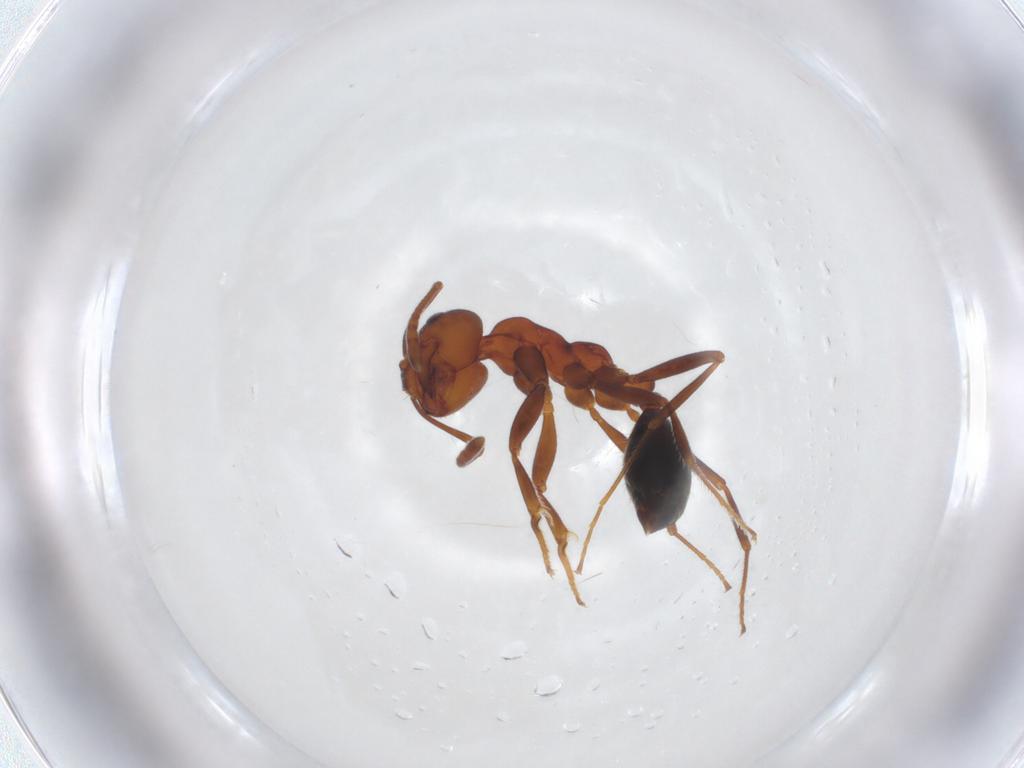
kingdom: Animalia
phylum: Arthropoda
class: Insecta
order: Hymenoptera
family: Formicidae
